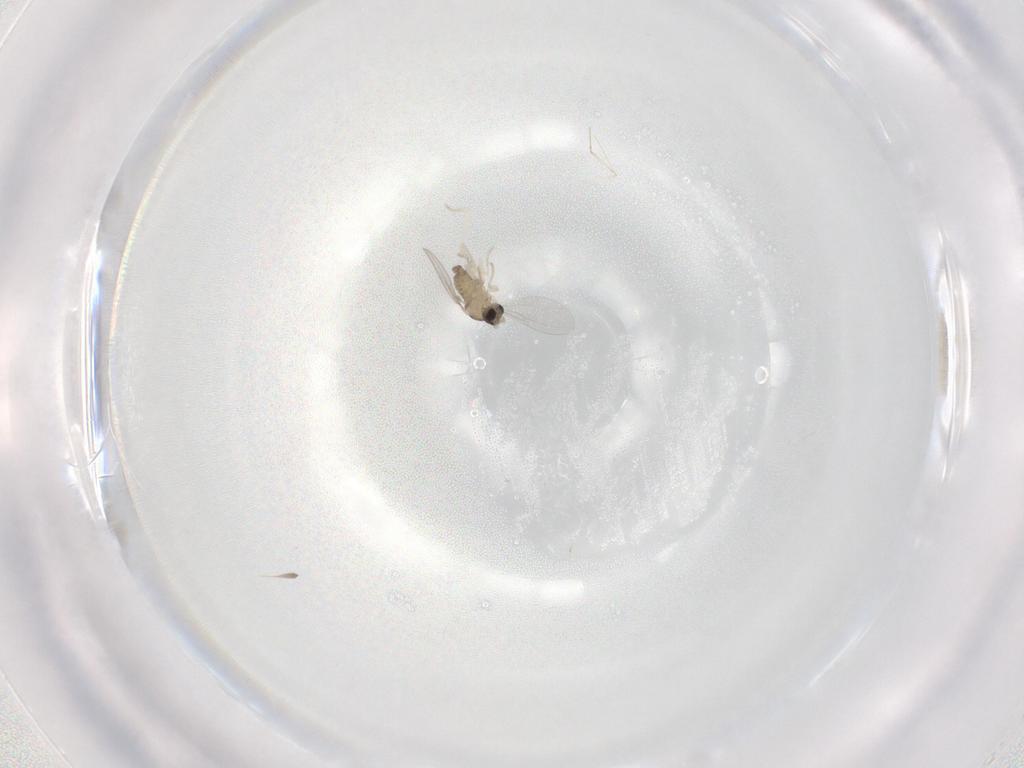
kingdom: Animalia
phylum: Arthropoda
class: Insecta
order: Diptera
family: Cecidomyiidae
